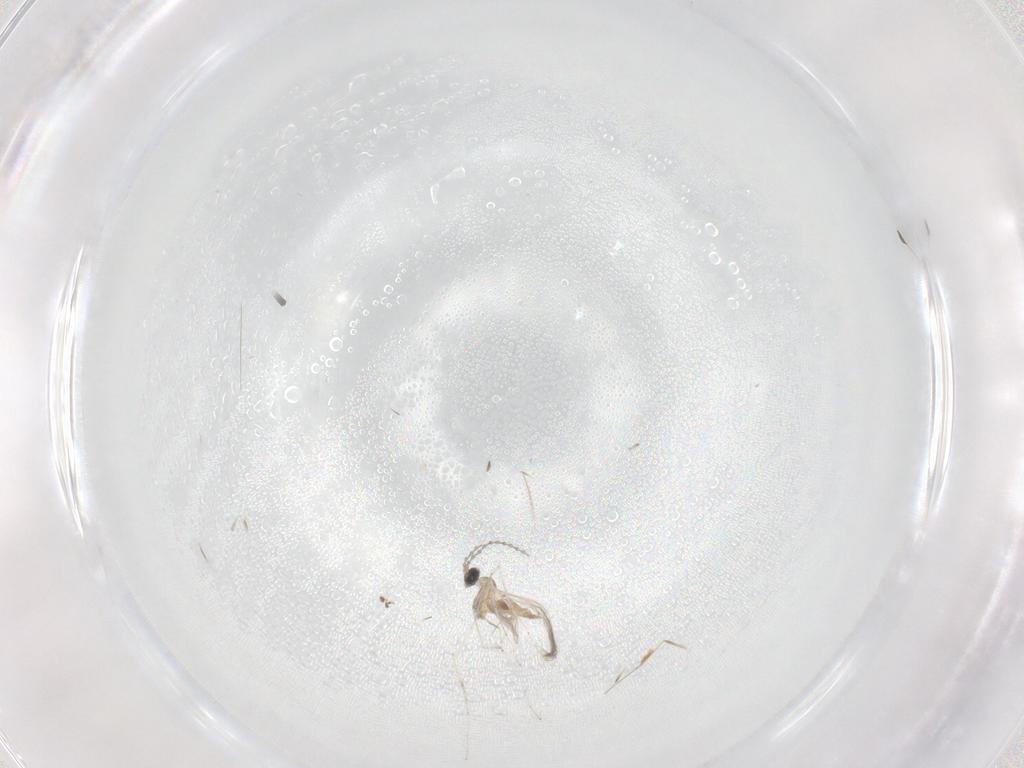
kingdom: Animalia
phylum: Arthropoda
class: Insecta
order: Diptera
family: Cecidomyiidae
